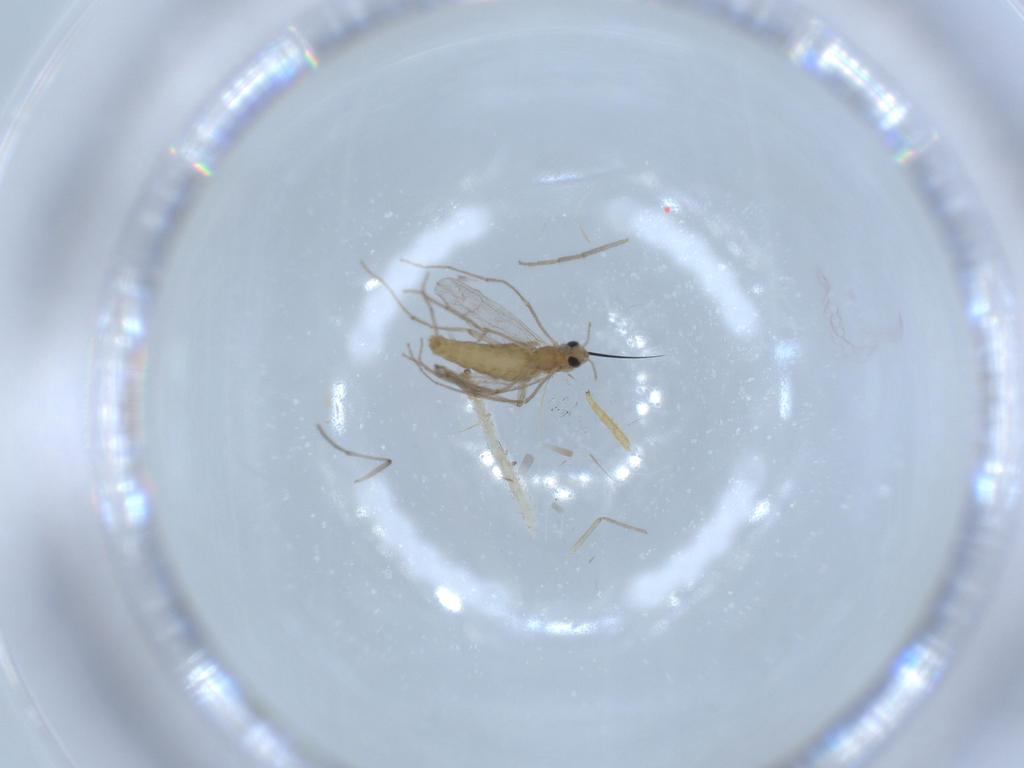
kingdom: Animalia
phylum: Arthropoda
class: Insecta
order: Diptera
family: Chironomidae
